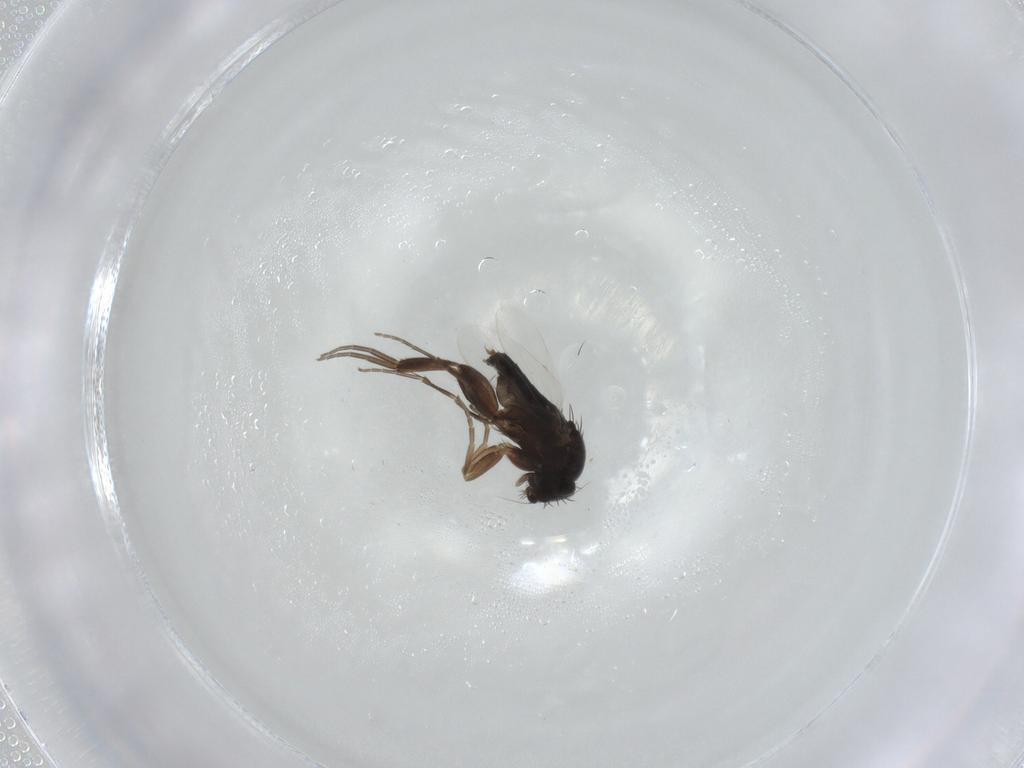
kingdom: Animalia
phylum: Arthropoda
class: Insecta
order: Diptera
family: Phoridae
